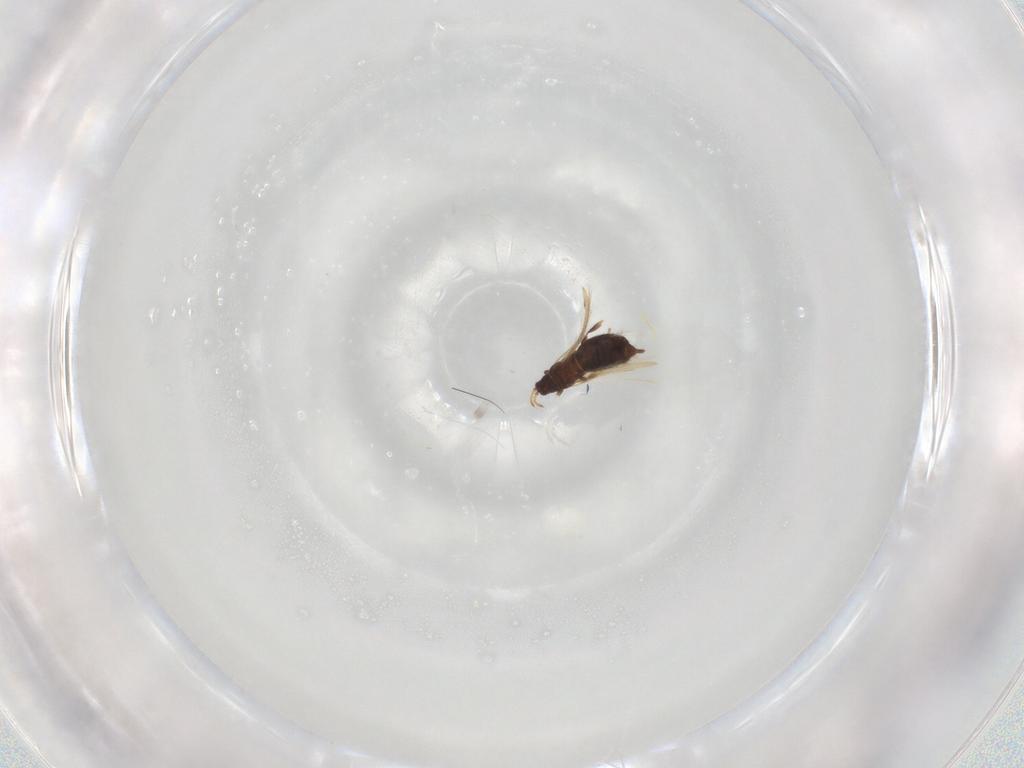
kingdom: Animalia
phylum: Arthropoda
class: Insecta
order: Thysanoptera
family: Thripidae
